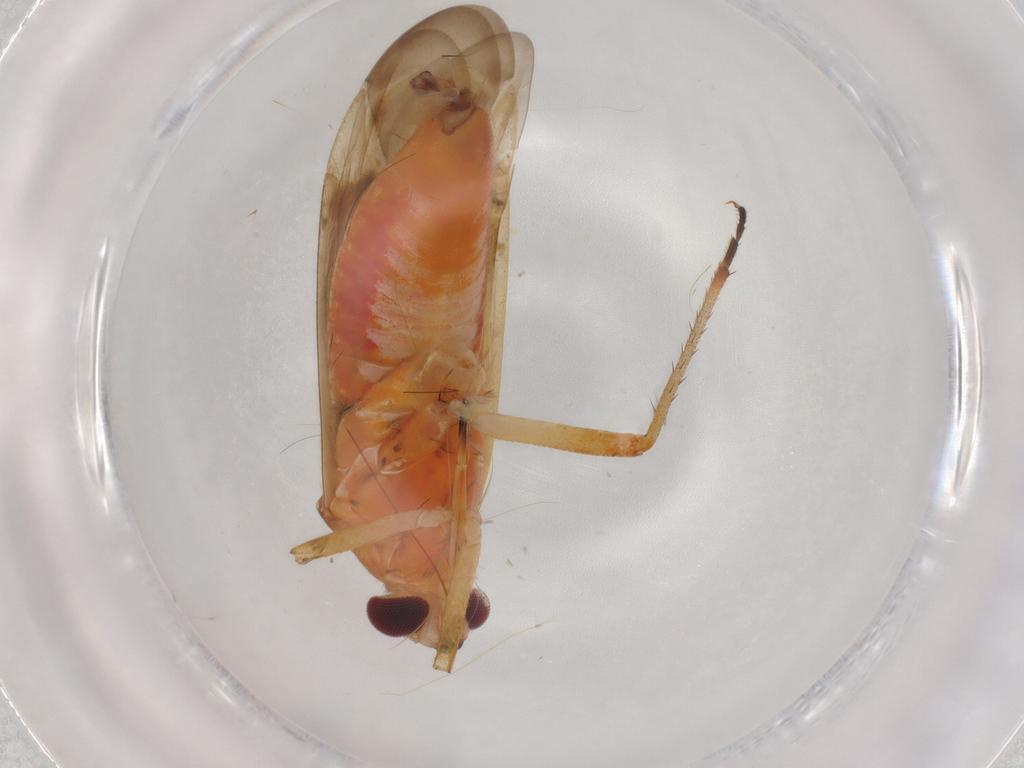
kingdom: Animalia
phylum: Arthropoda
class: Insecta
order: Hemiptera
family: Miridae
